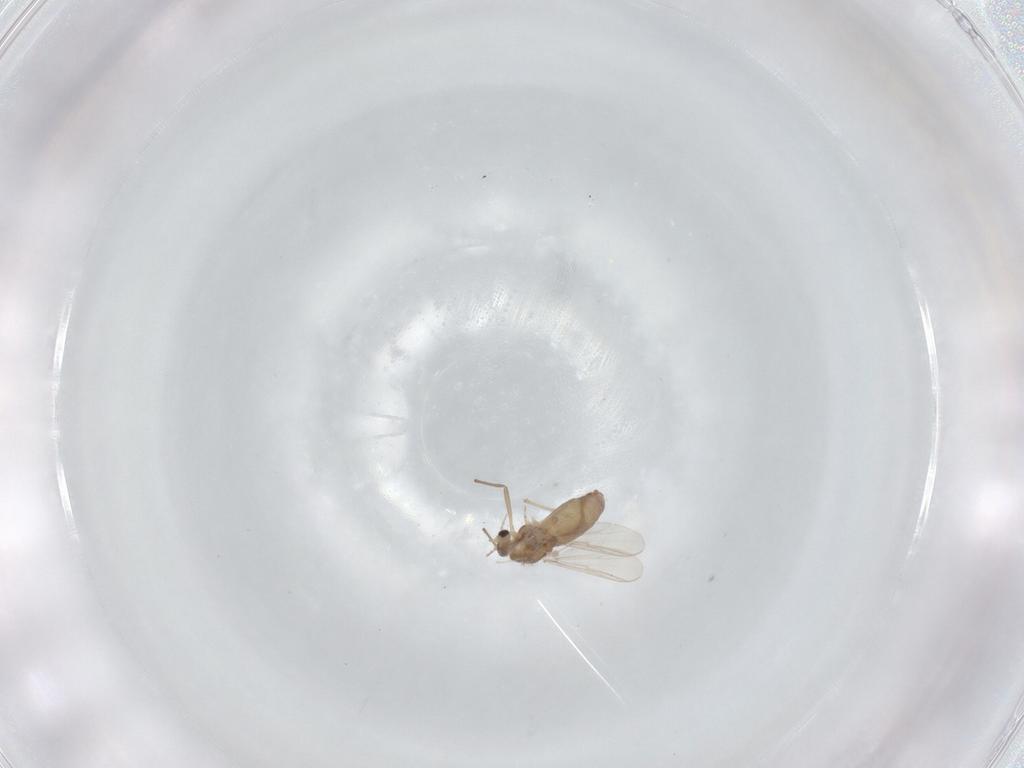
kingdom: Animalia
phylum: Arthropoda
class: Insecta
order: Diptera
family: Chironomidae
